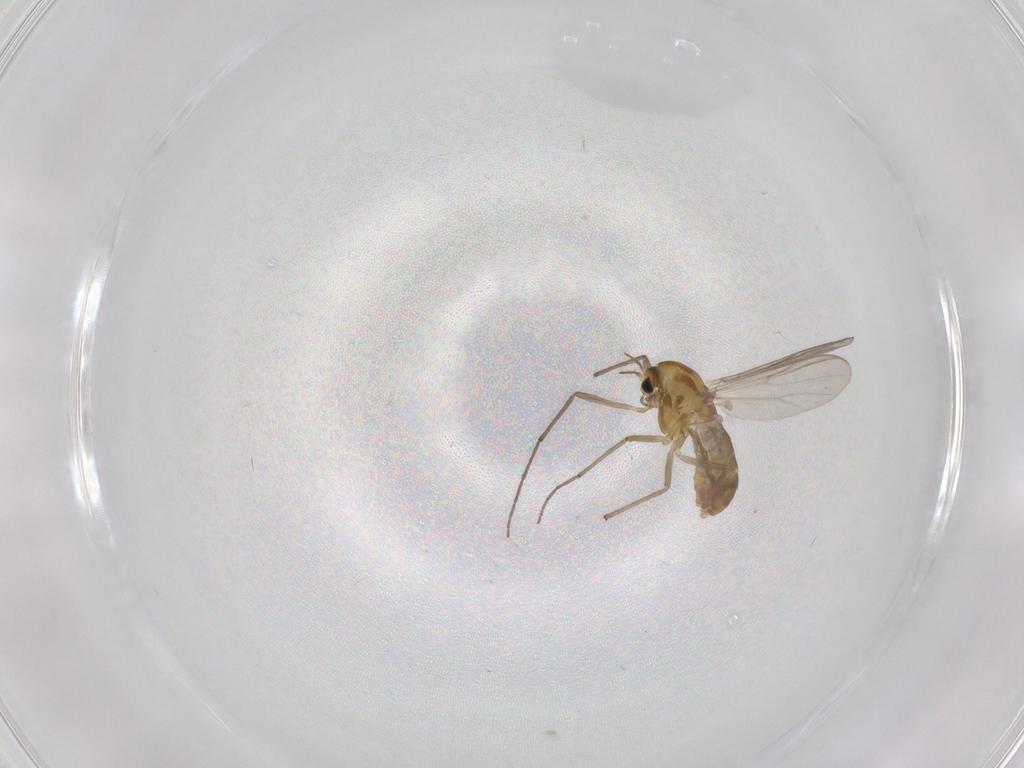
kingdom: Animalia
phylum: Arthropoda
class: Insecta
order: Diptera
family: Chironomidae
